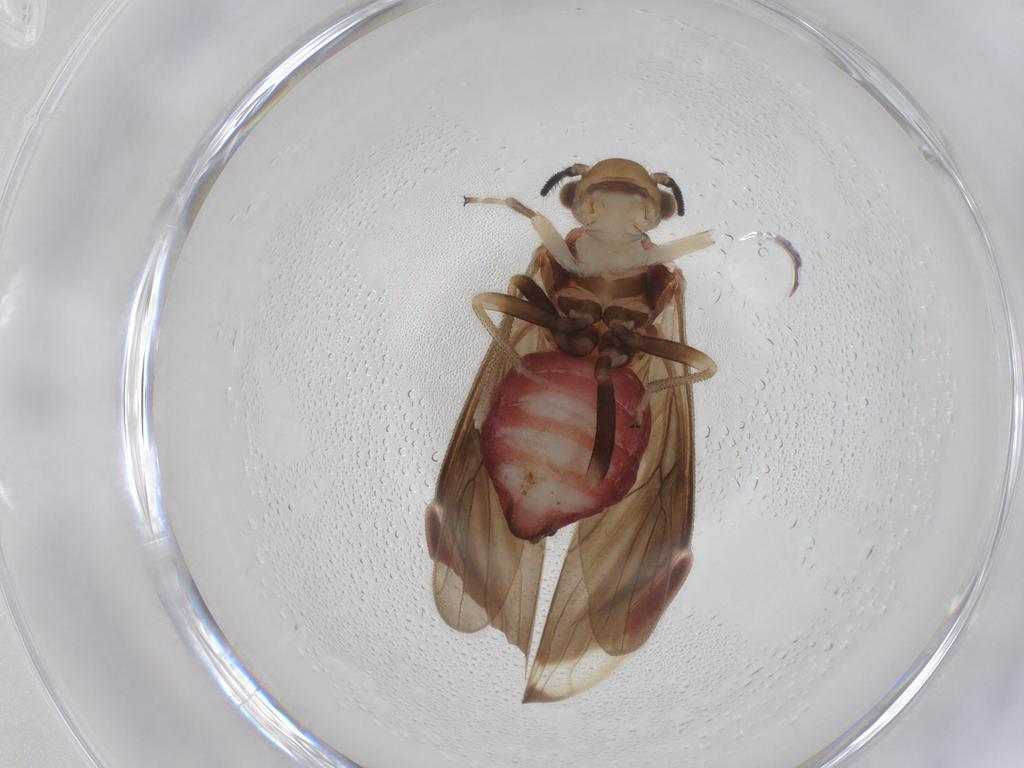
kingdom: Animalia
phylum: Arthropoda
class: Insecta
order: Psocodea
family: Amphipsocidae
